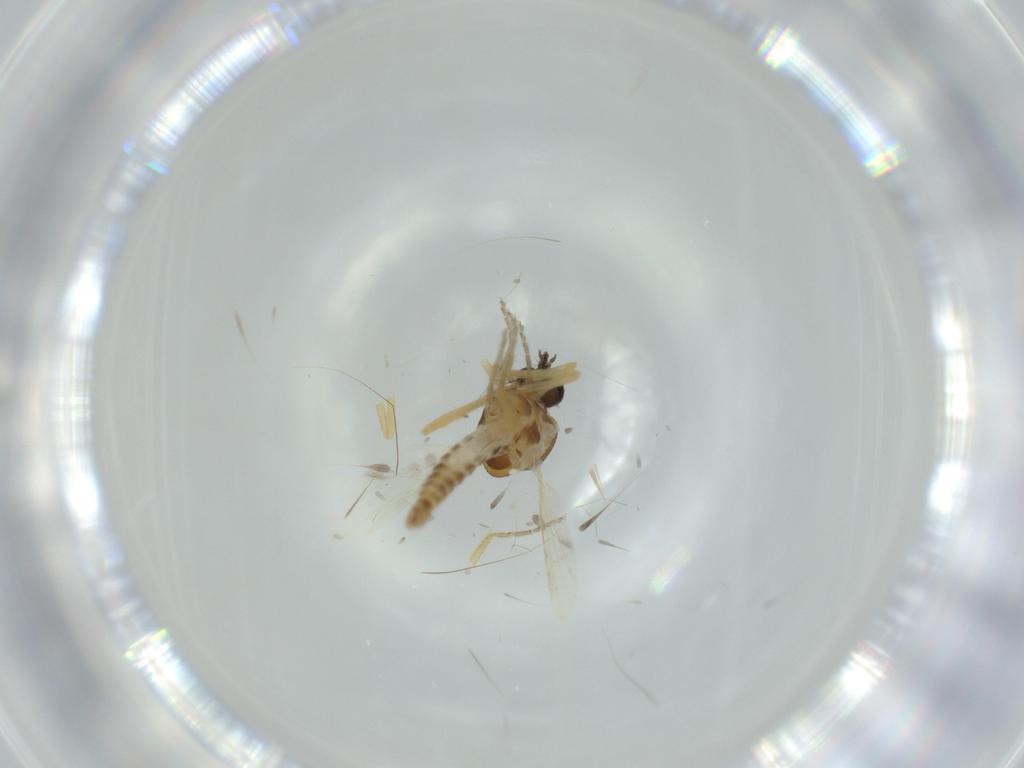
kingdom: Animalia
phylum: Arthropoda
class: Insecta
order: Diptera
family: Ceratopogonidae
